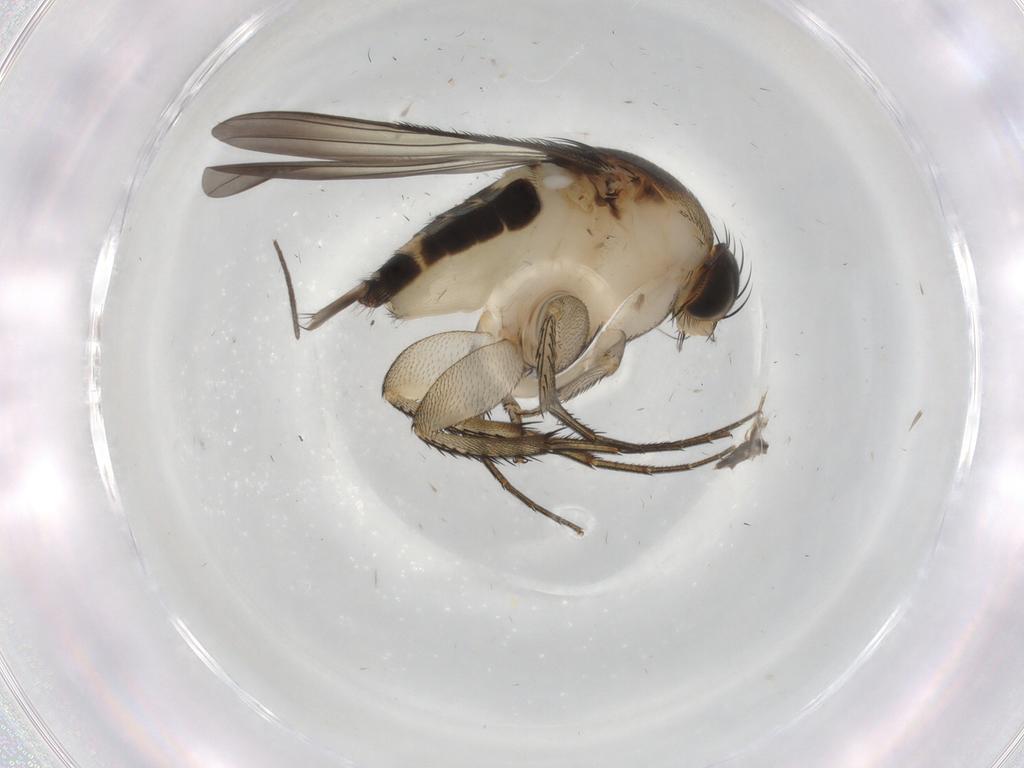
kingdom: Animalia
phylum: Arthropoda
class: Insecta
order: Diptera
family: Phoridae
